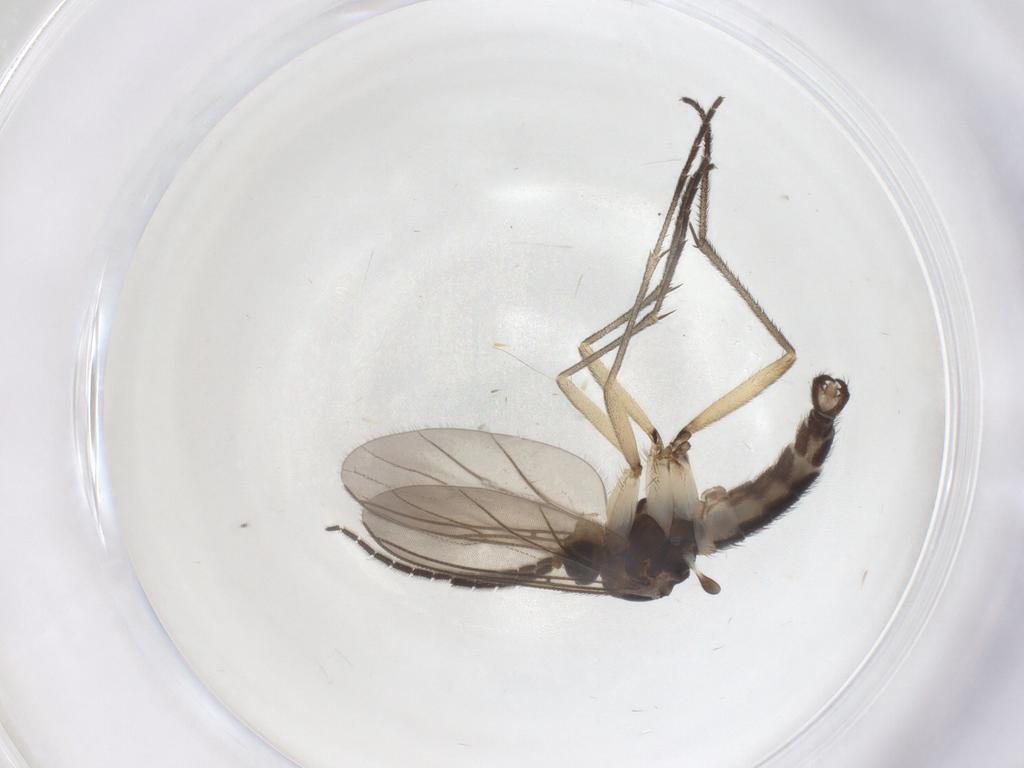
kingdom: Animalia
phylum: Arthropoda
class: Insecta
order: Diptera
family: Sciaridae
